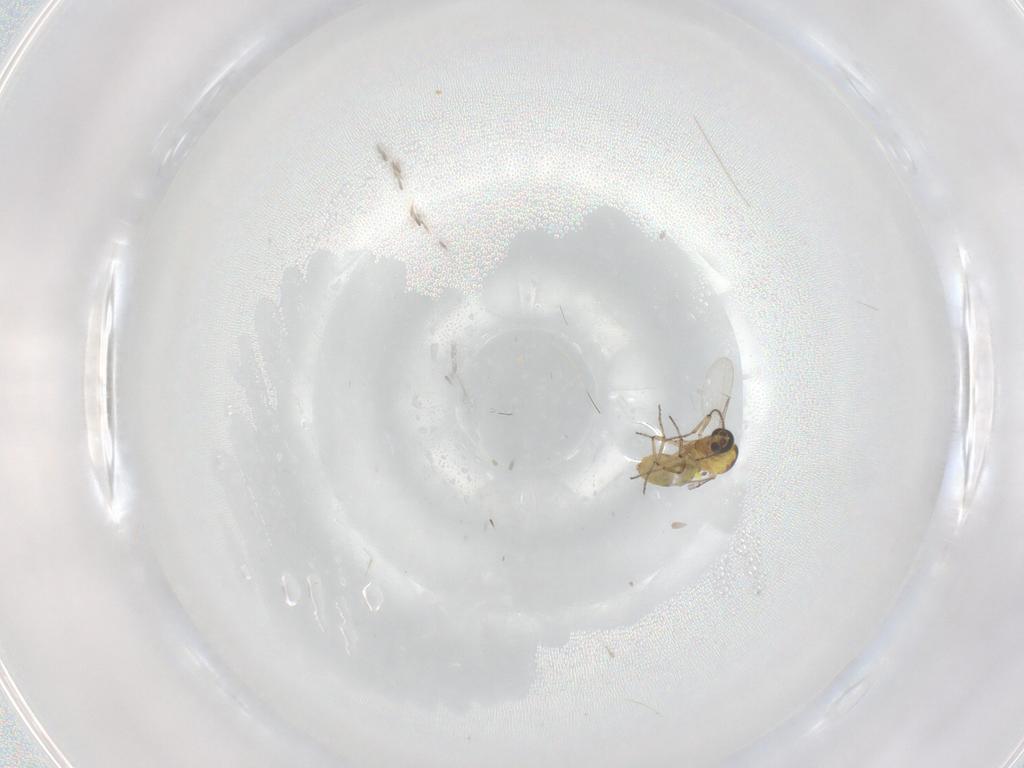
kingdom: Animalia
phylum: Arthropoda
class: Insecta
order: Diptera
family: Ceratopogonidae
